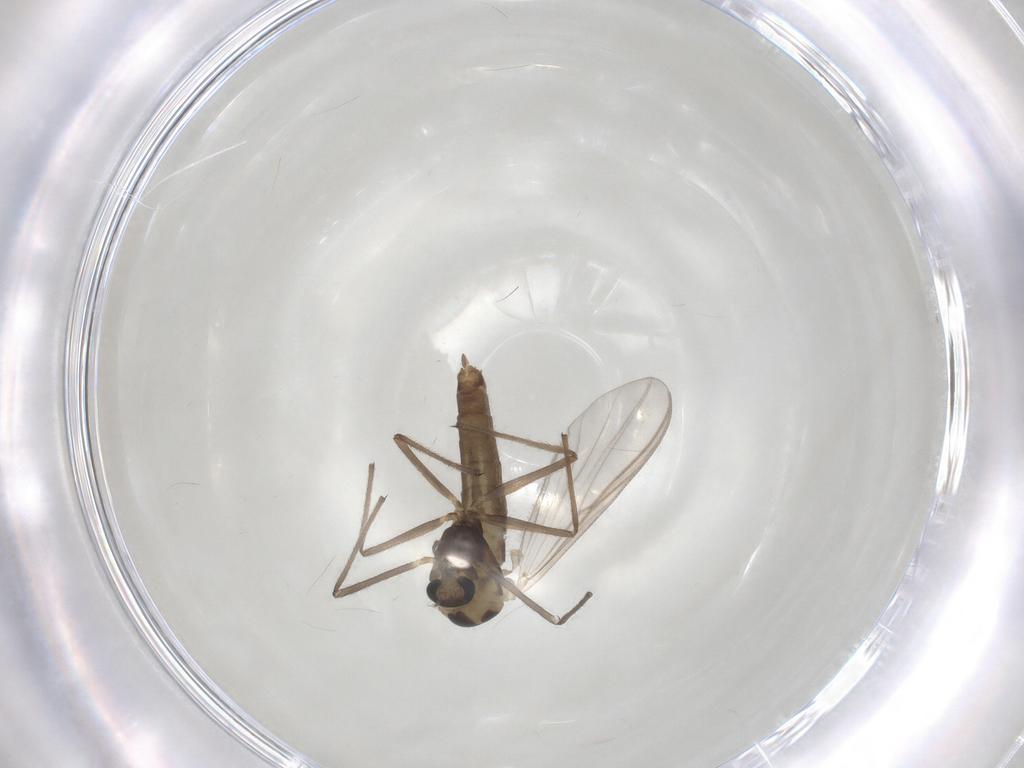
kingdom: Animalia
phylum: Arthropoda
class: Insecta
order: Diptera
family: Chironomidae
